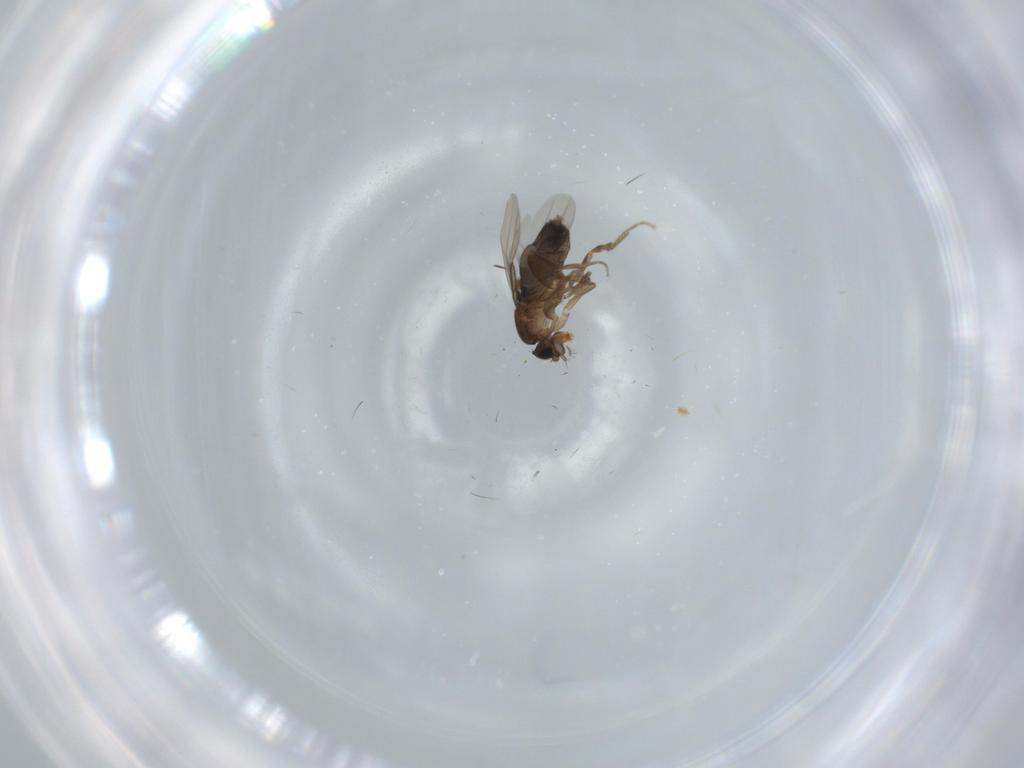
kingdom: Animalia
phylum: Arthropoda
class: Insecta
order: Diptera
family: Phoridae
